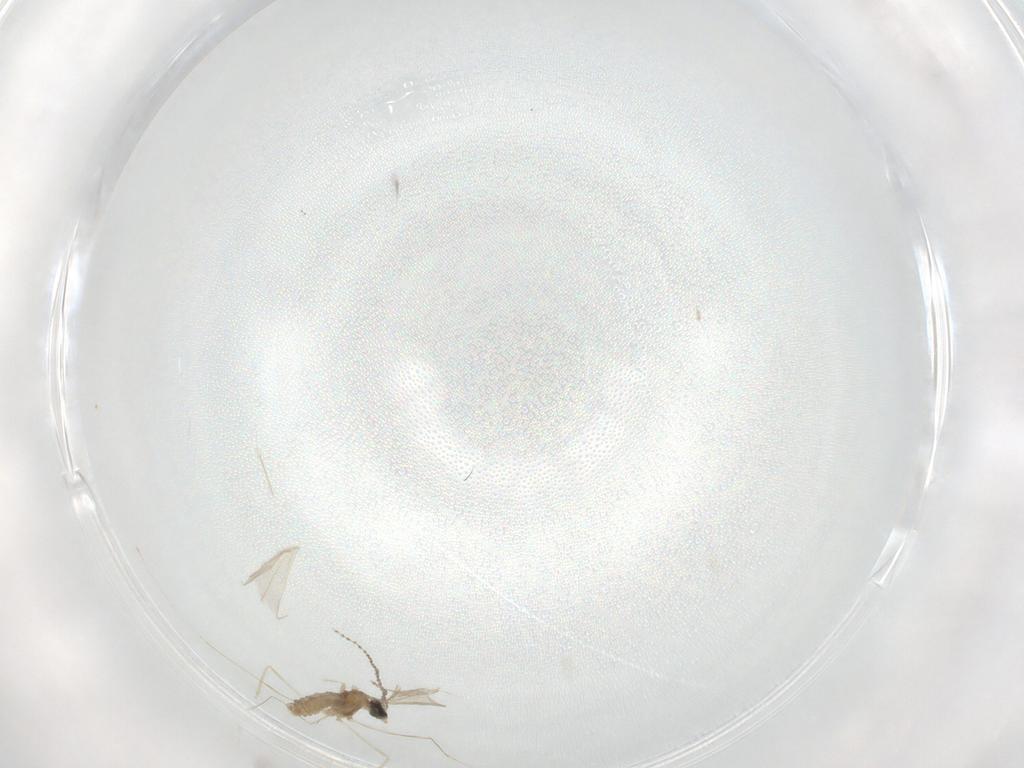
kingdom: Animalia
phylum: Arthropoda
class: Insecta
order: Diptera
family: Cecidomyiidae
